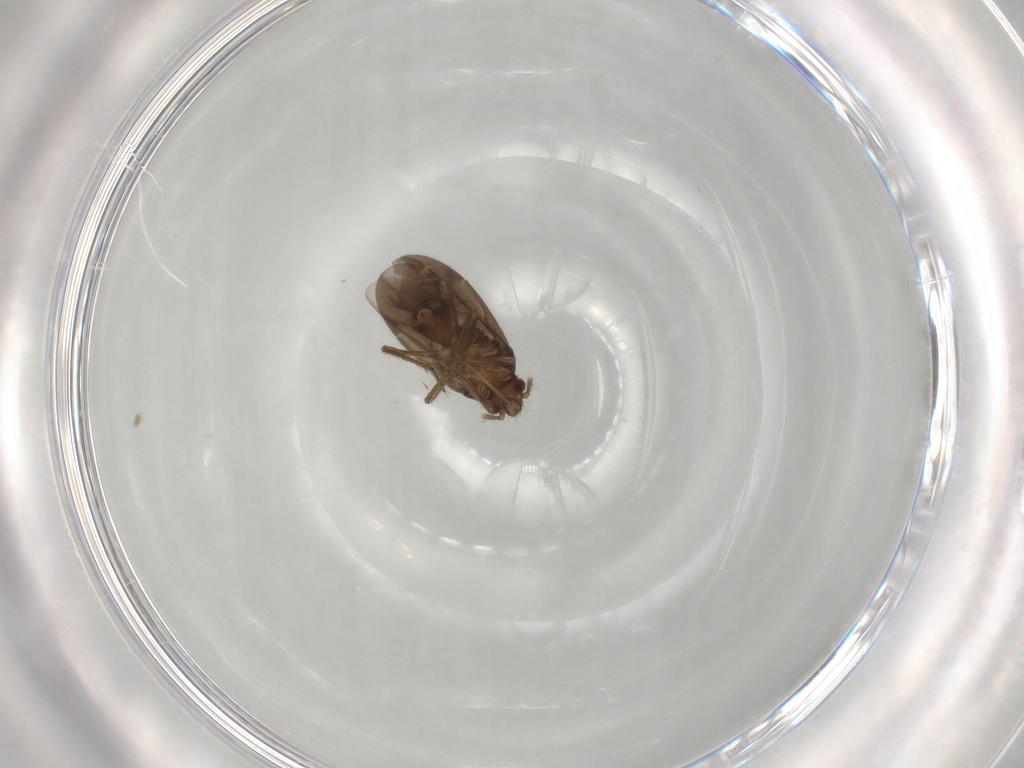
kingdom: Animalia
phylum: Arthropoda
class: Insecta
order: Hemiptera
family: Ceratocombidae
